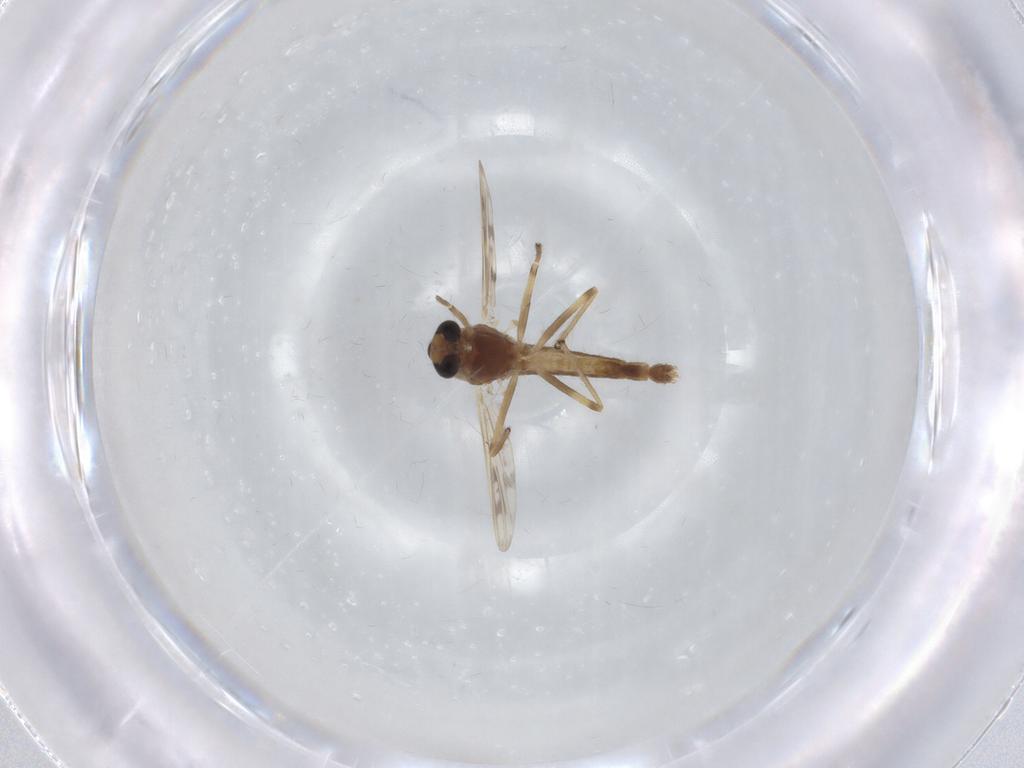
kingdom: Animalia
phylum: Arthropoda
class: Insecta
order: Diptera
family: Chironomidae
